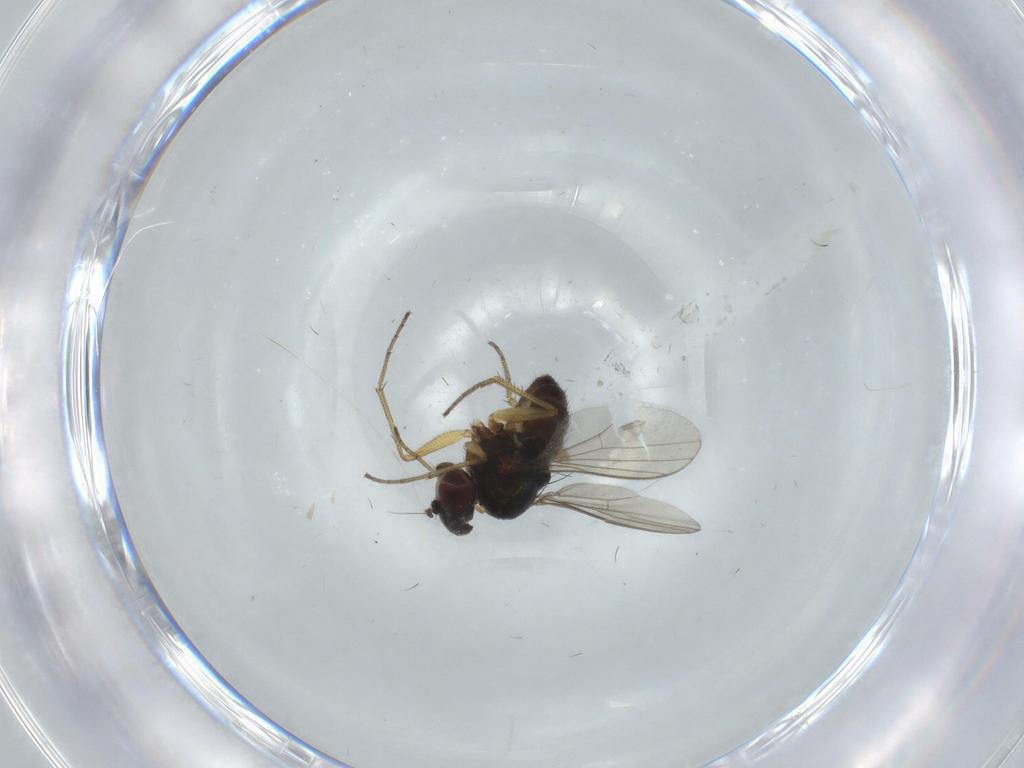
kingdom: Animalia
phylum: Arthropoda
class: Insecta
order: Diptera
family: Dolichopodidae
